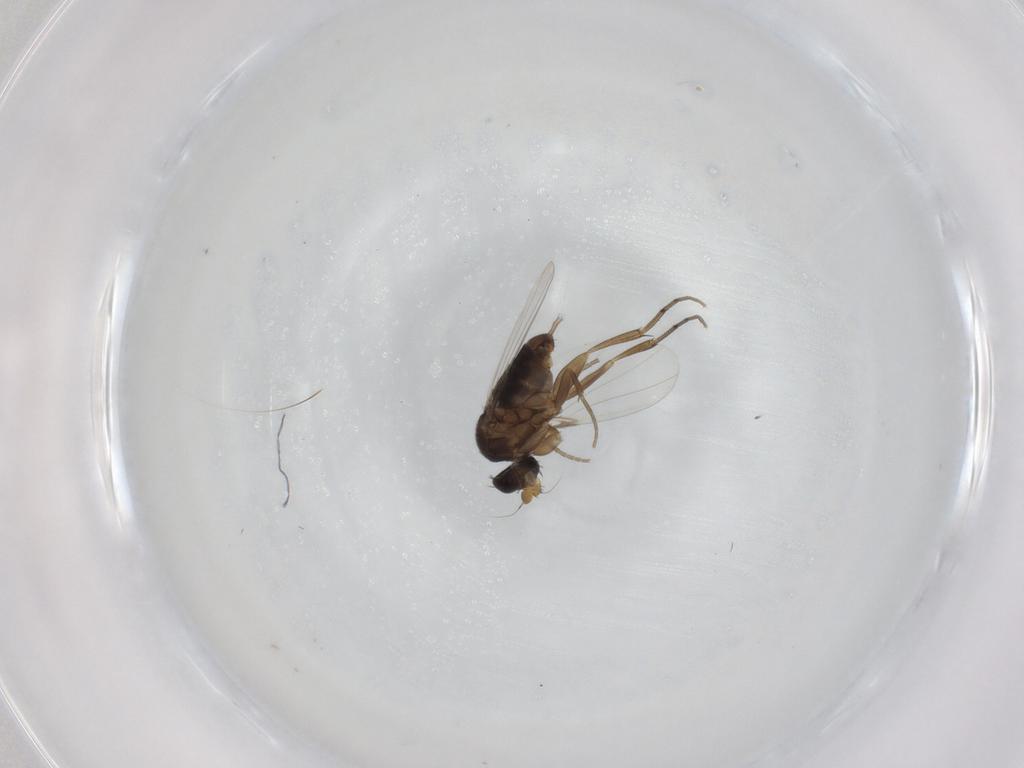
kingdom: Animalia
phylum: Arthropoda
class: Insecta
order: Diptera
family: Phoridae
